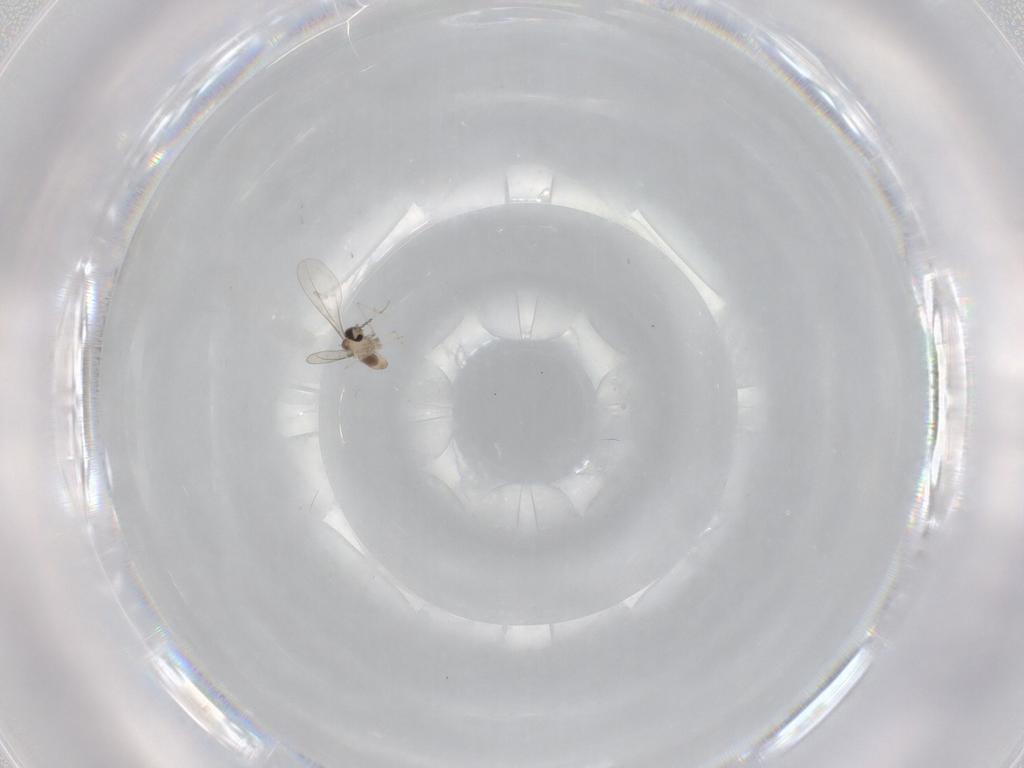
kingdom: Animalia
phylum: Arthropoda
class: Insecta
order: Diptera
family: Cecidomyiidae
